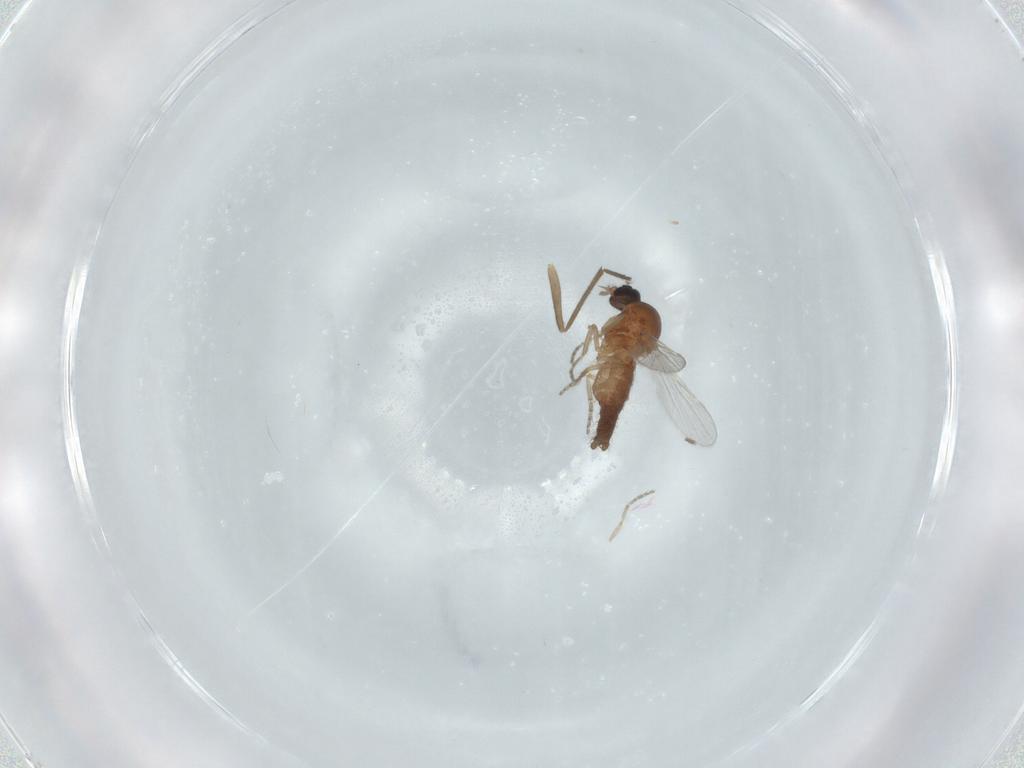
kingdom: Animalia
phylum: Arthropoda
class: Insecta
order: Diptera
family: Ceratopogonidae
